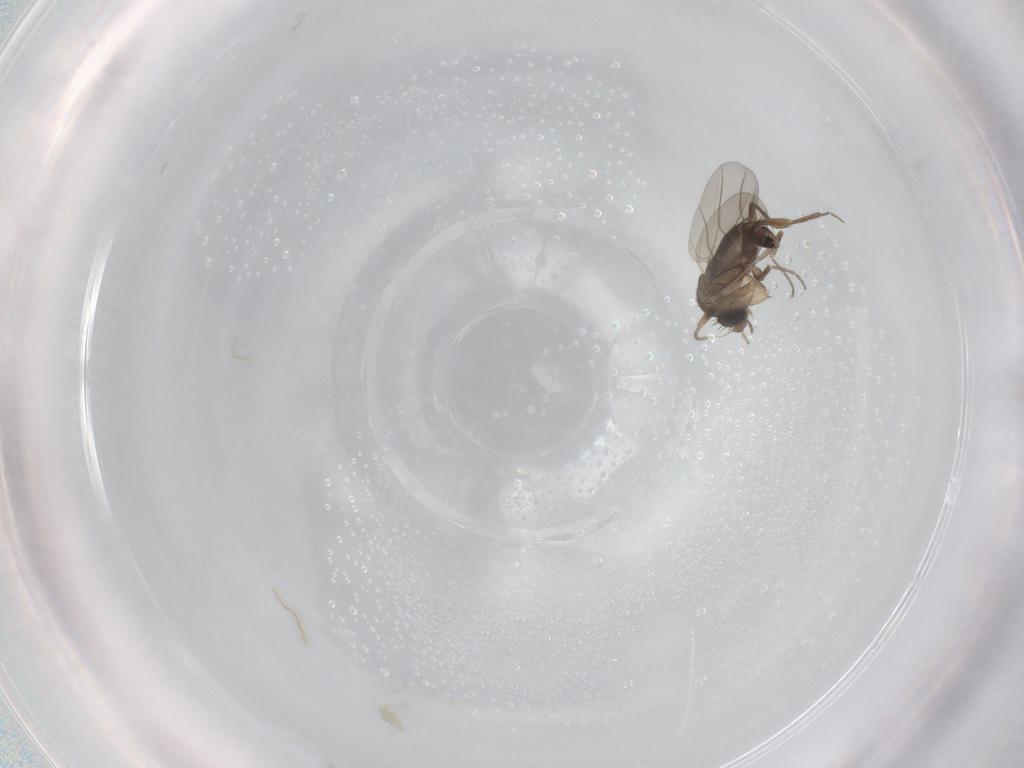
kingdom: Animalia
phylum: Arthropoda
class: Insecta
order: Diptera
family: Phoridae
